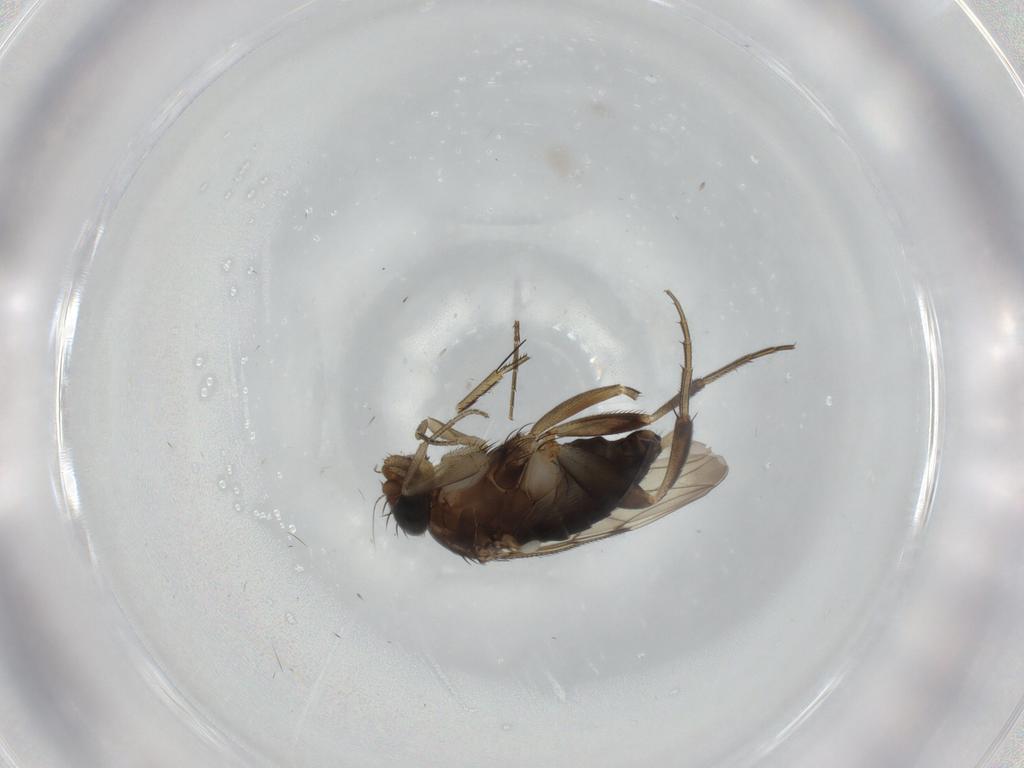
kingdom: Animalia
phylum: Arthropoda
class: Insecta
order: Diptera
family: Phoridae
